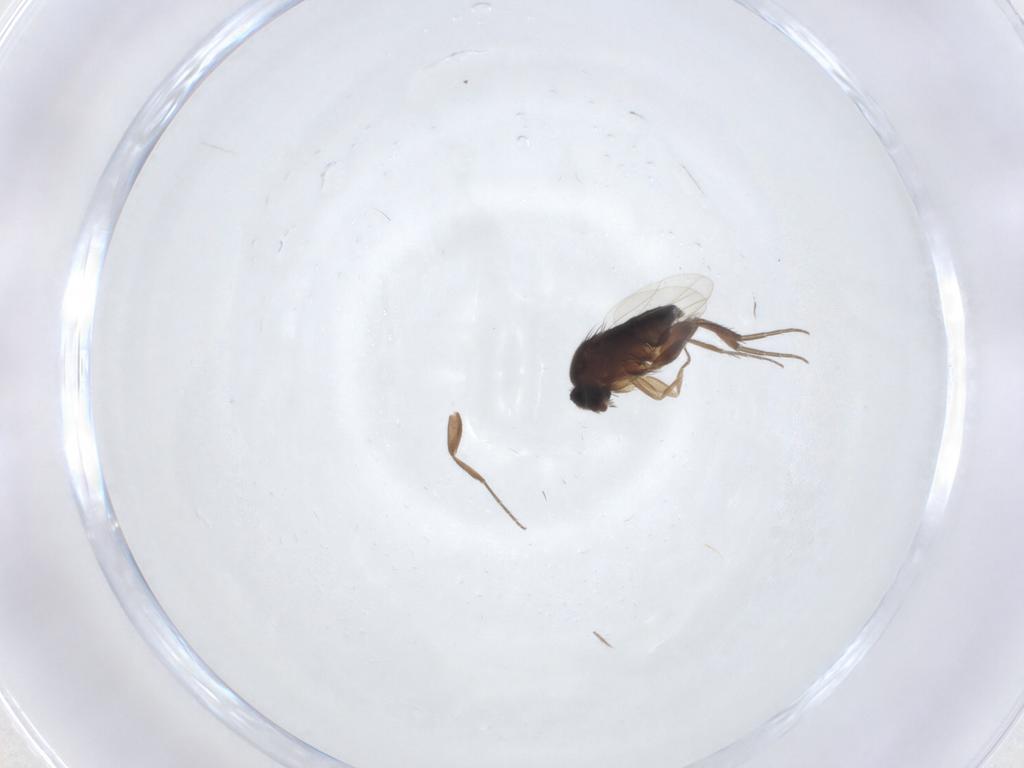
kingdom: Animalia
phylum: Arthropoda
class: Insecta
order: Diptera
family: Phoridae
